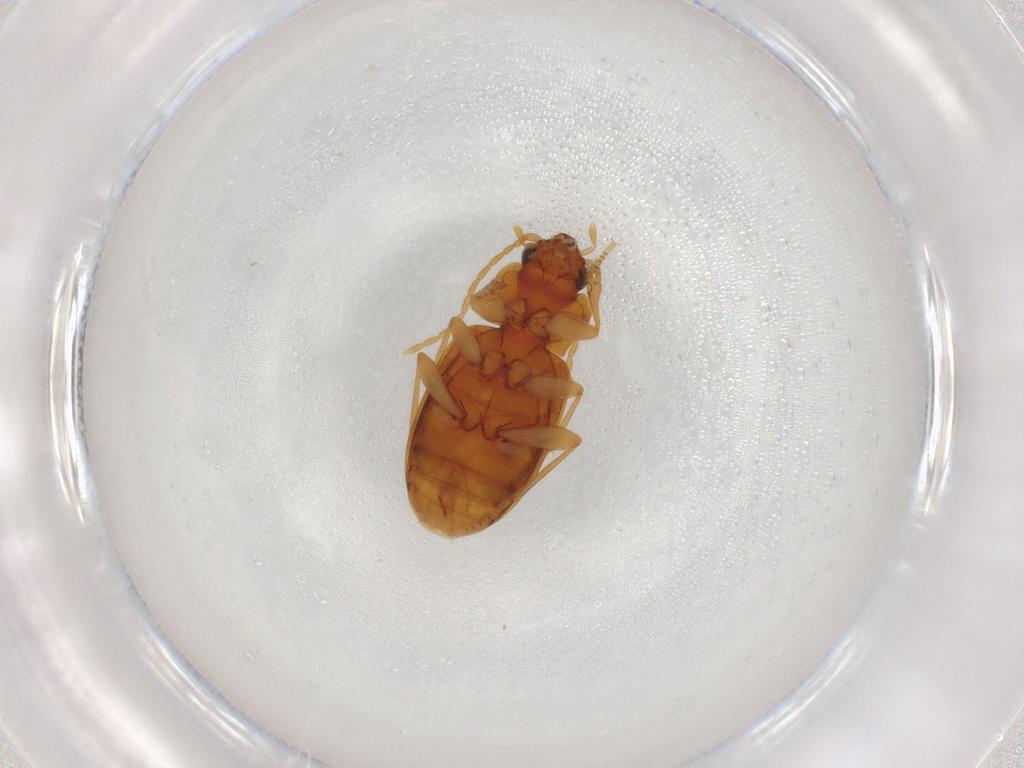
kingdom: Animalia
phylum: Arthropoda
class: Insecta
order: Coleoptera
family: Carabidae
